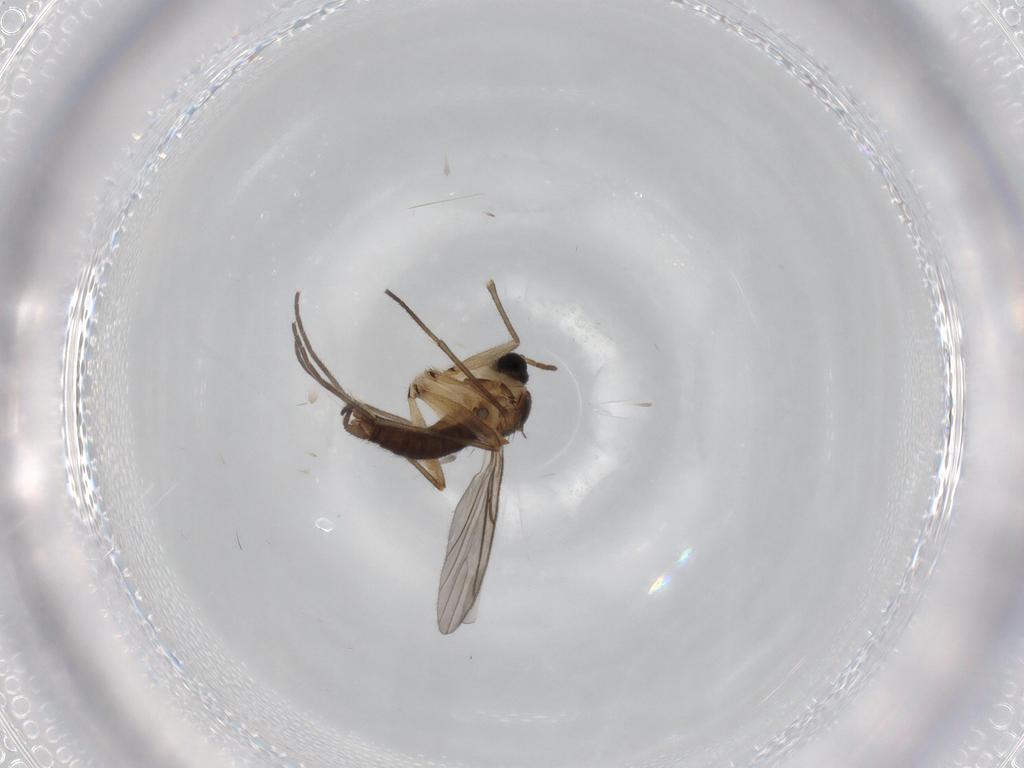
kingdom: Animalia
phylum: Arthropoda
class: Insecta
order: Diptera
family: Sciaridae
